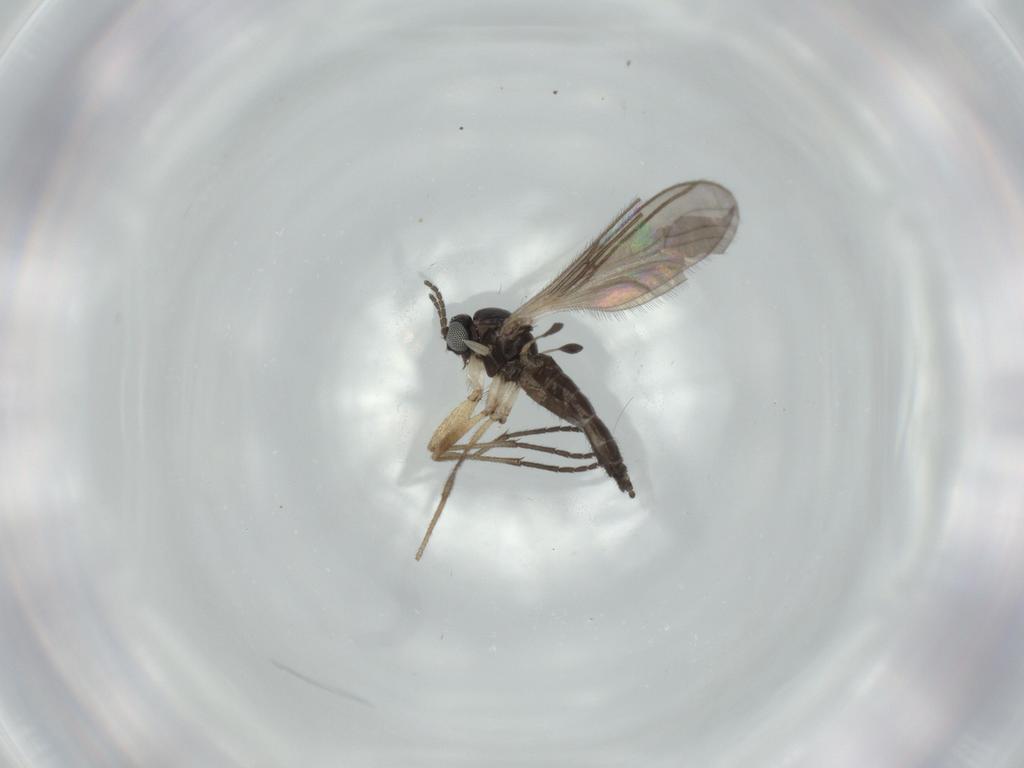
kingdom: Animalia
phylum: Arthropoda
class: Insecta
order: Diptera
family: Sciaridae
